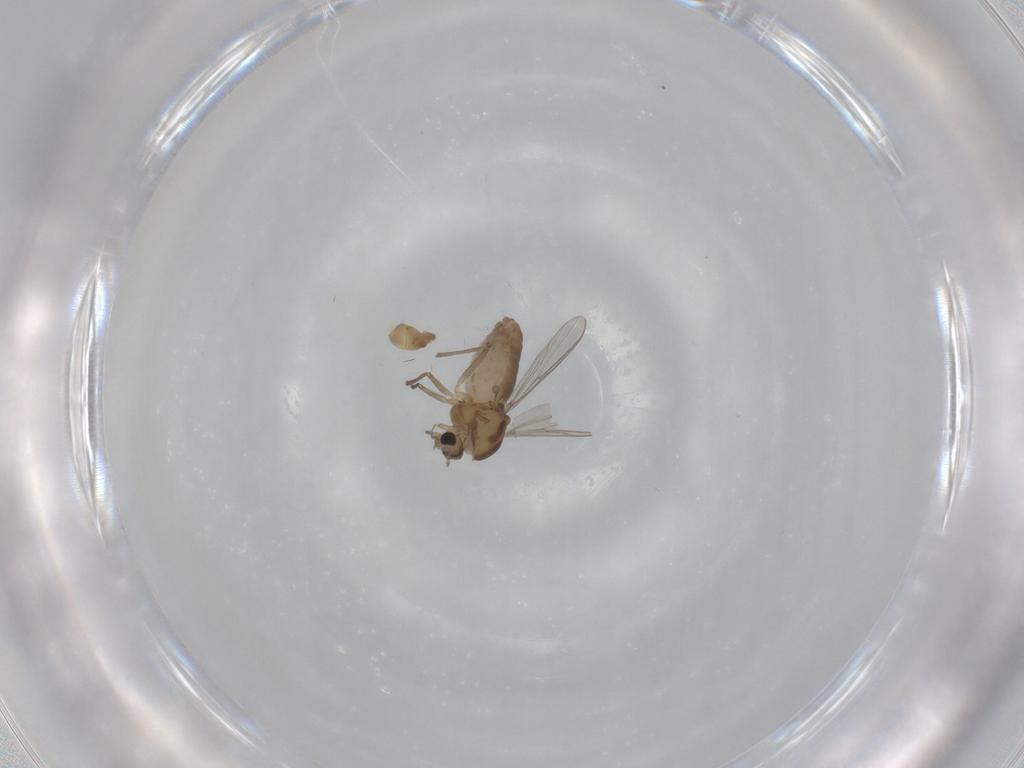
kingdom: Animalia
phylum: Arthropoda
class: Insecta
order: Diptera
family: Chironomidae
